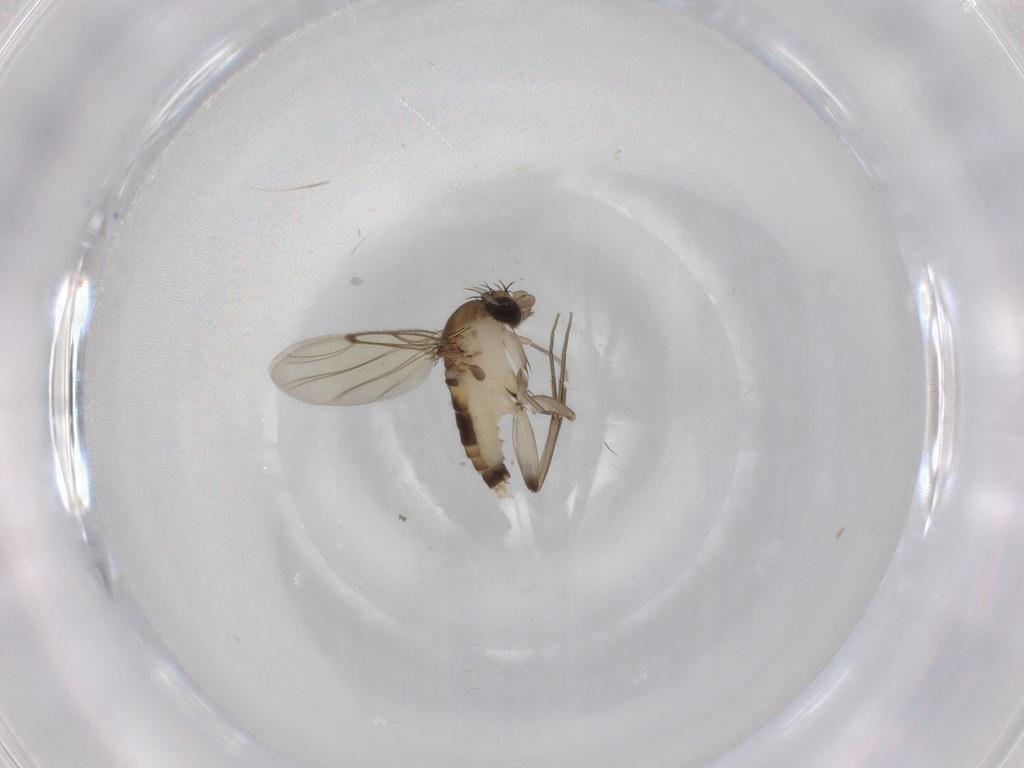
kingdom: Animalia
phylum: Arthropoda
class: Insecta
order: Diptera
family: Phoridae
